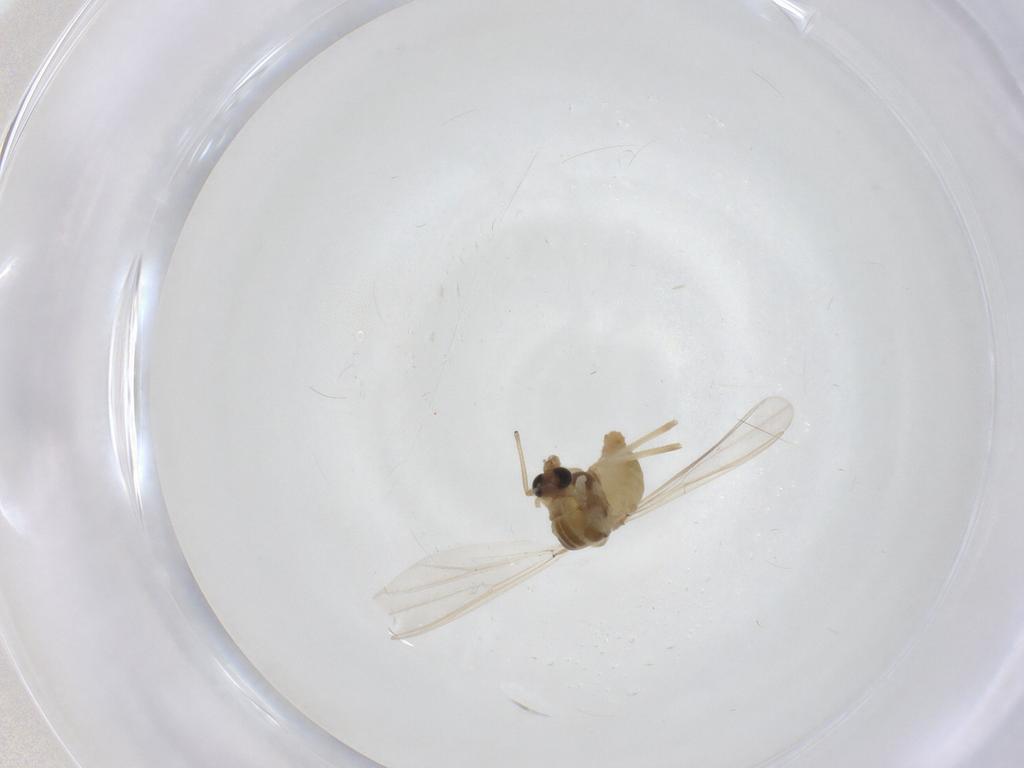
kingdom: Animalia
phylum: Arthropoda
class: Insecta
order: Diptera
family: Chironomidae
